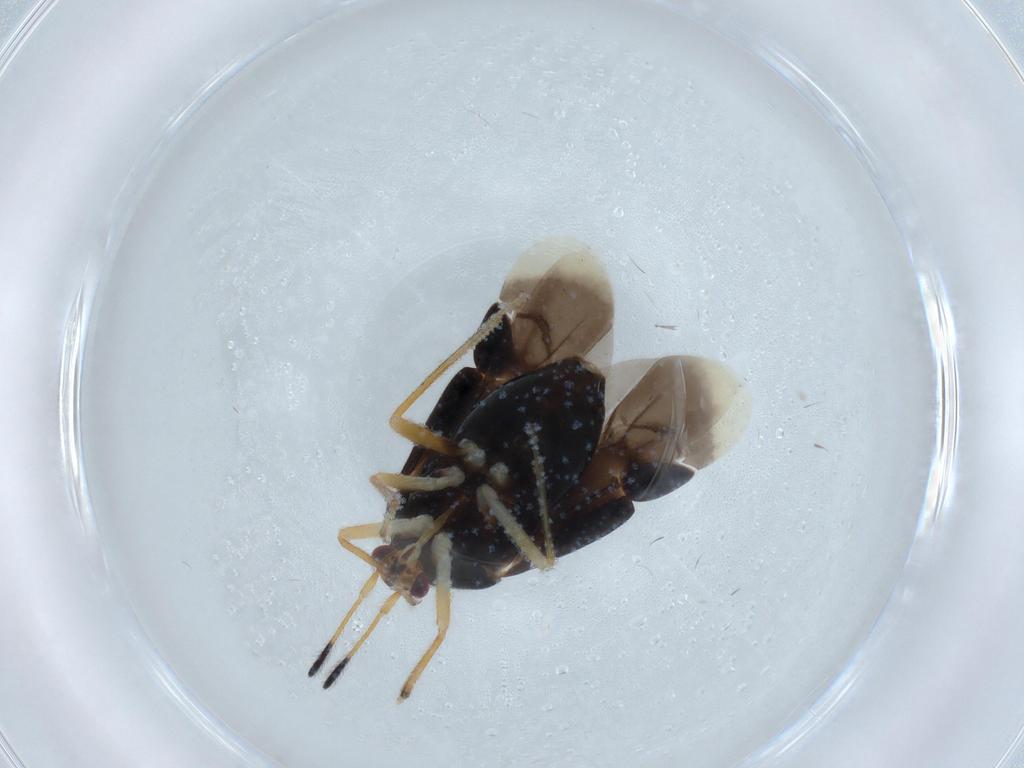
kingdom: Animalia
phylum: Arthropoda
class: Insecta
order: Hemiptera
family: Miridae
